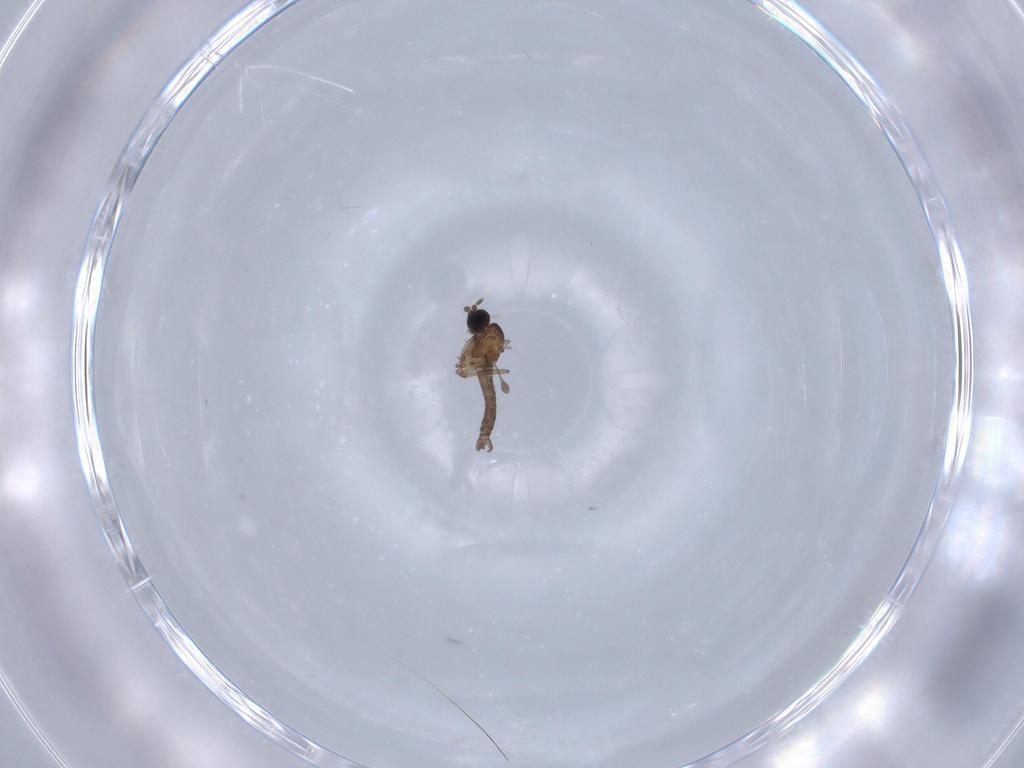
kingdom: Animalia
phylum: Arthropoda
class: Insecta
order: Diptera
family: Sciaridae
